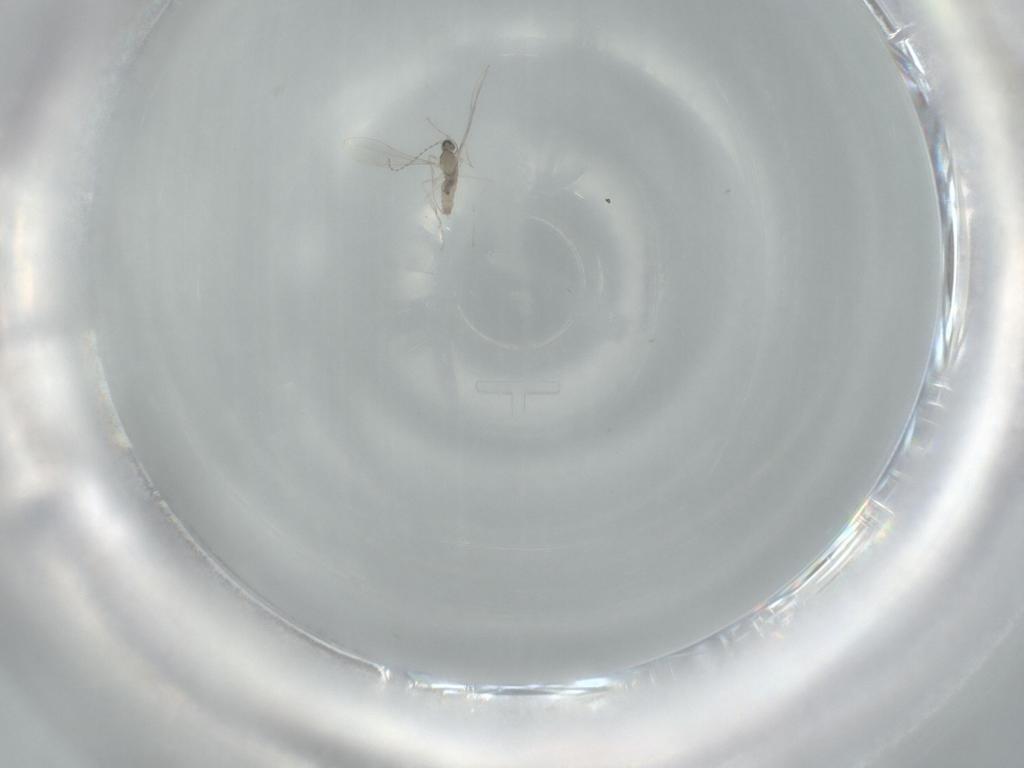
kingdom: Animalia
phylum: Arthropoda
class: Insecta
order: Diptera
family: Cecidomyiidae
